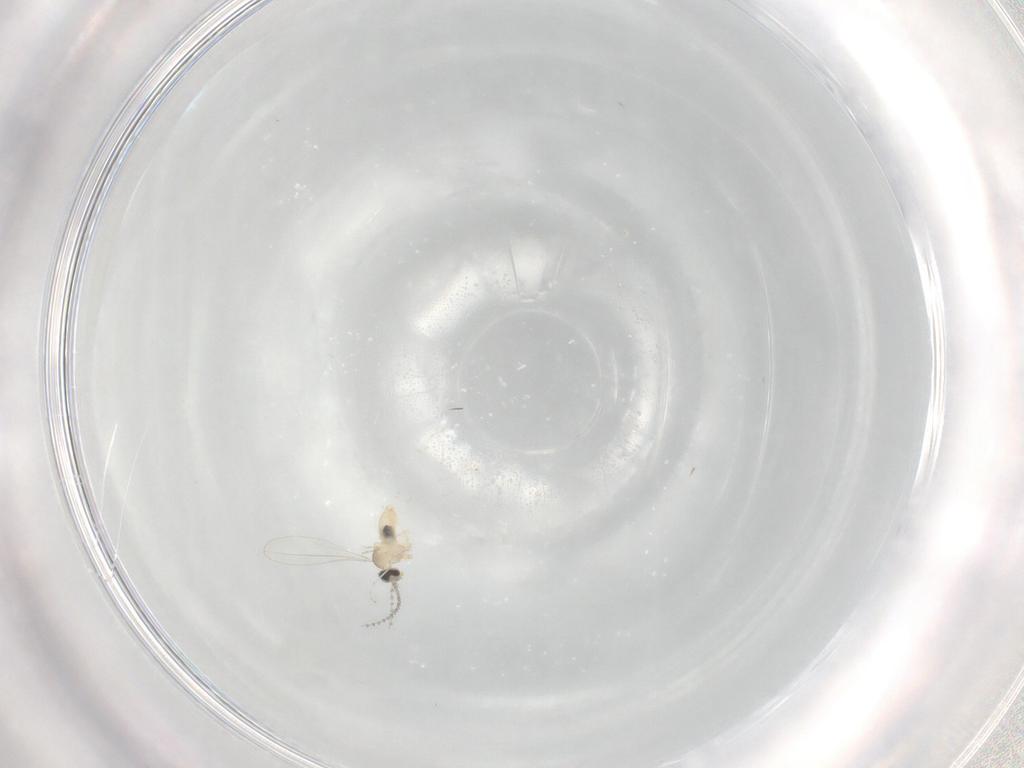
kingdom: Animalia
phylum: Arthropoda
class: Insecta
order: Diptera
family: Cecidomyiidae
